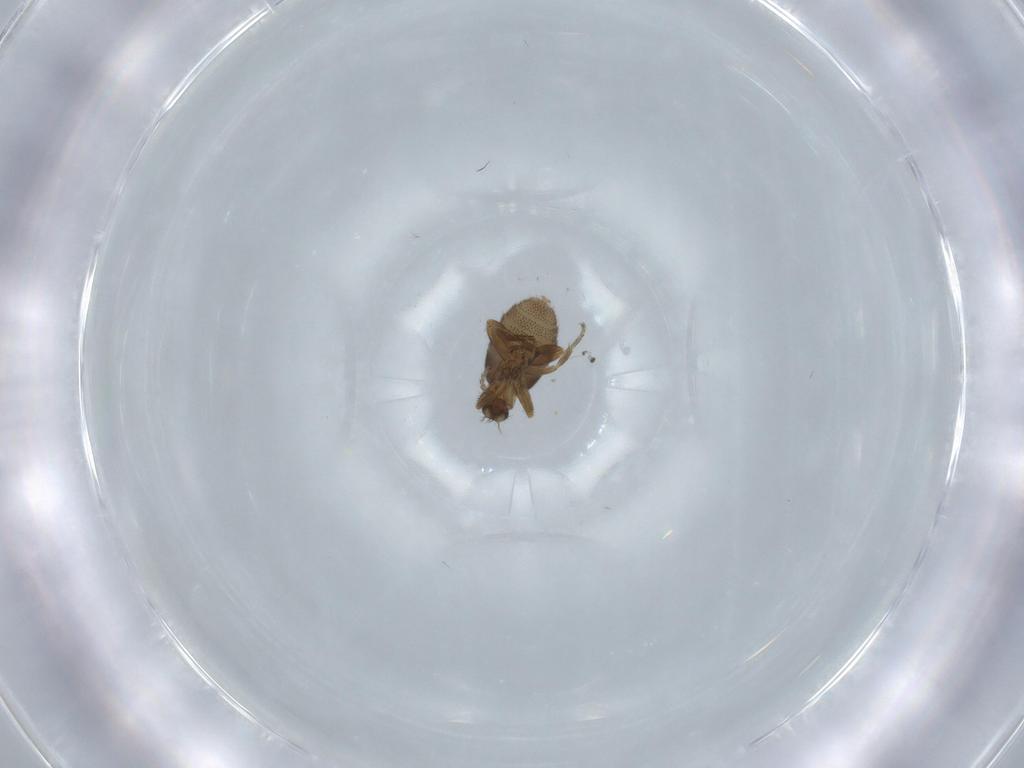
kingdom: Animalia
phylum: Arthropoda
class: Insecta
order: Diptera
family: Phoridae
